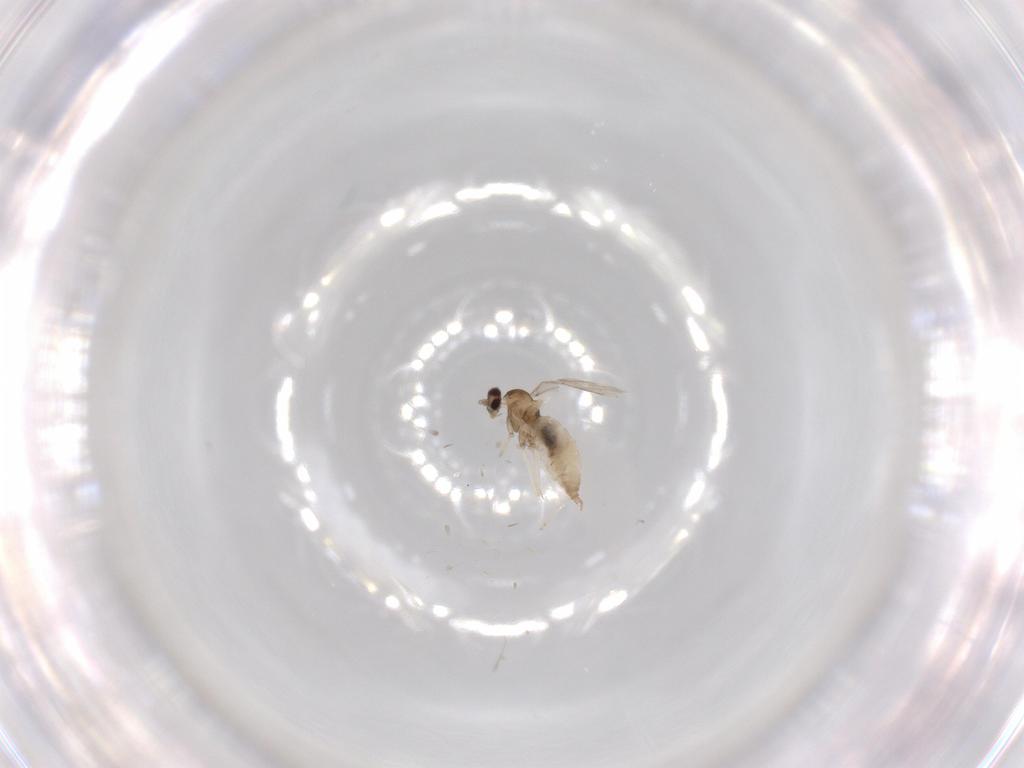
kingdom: Animalia
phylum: Arthropoda
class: Insecta
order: Diptera
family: Cecidomyiidae
